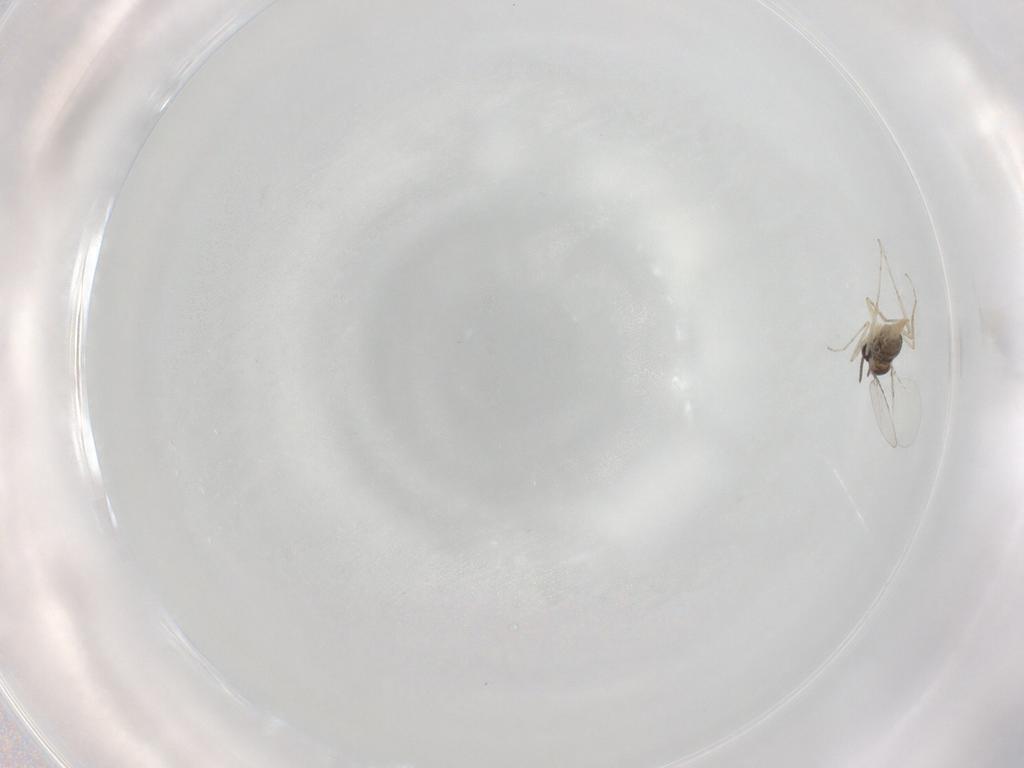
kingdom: Animalia
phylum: Arthropoda
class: Insecta
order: Diptera
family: Cecidomyiidae
